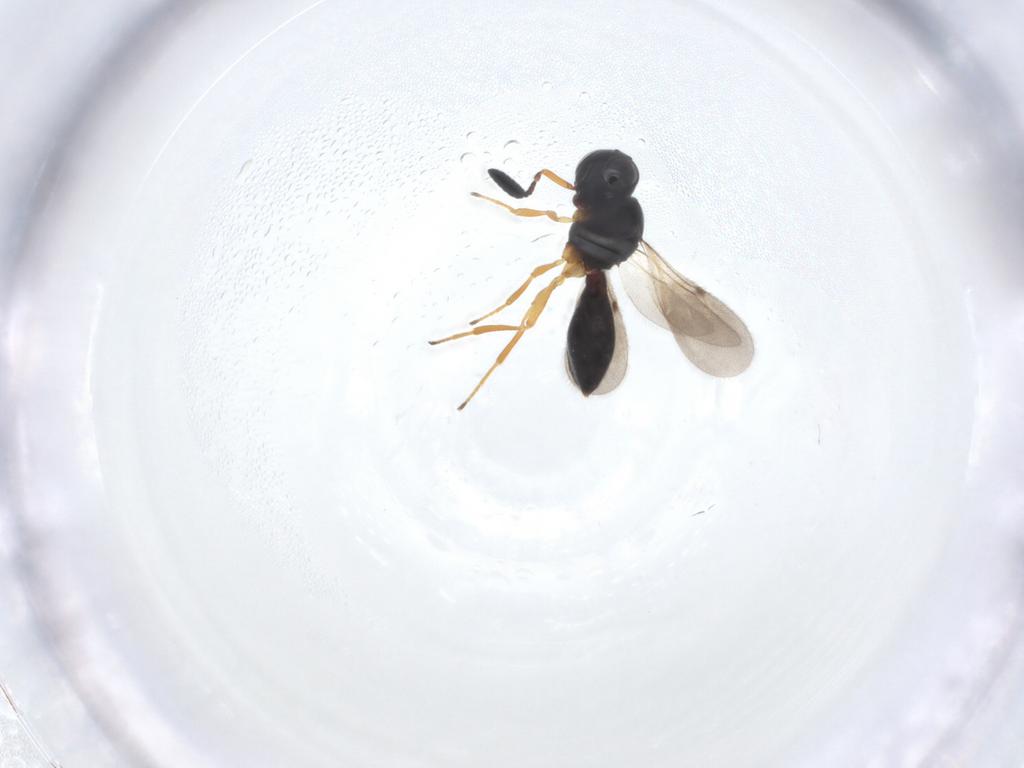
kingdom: Animalia
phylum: Arthropoda
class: Insecta
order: Hymenoptera
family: Scelionidae
